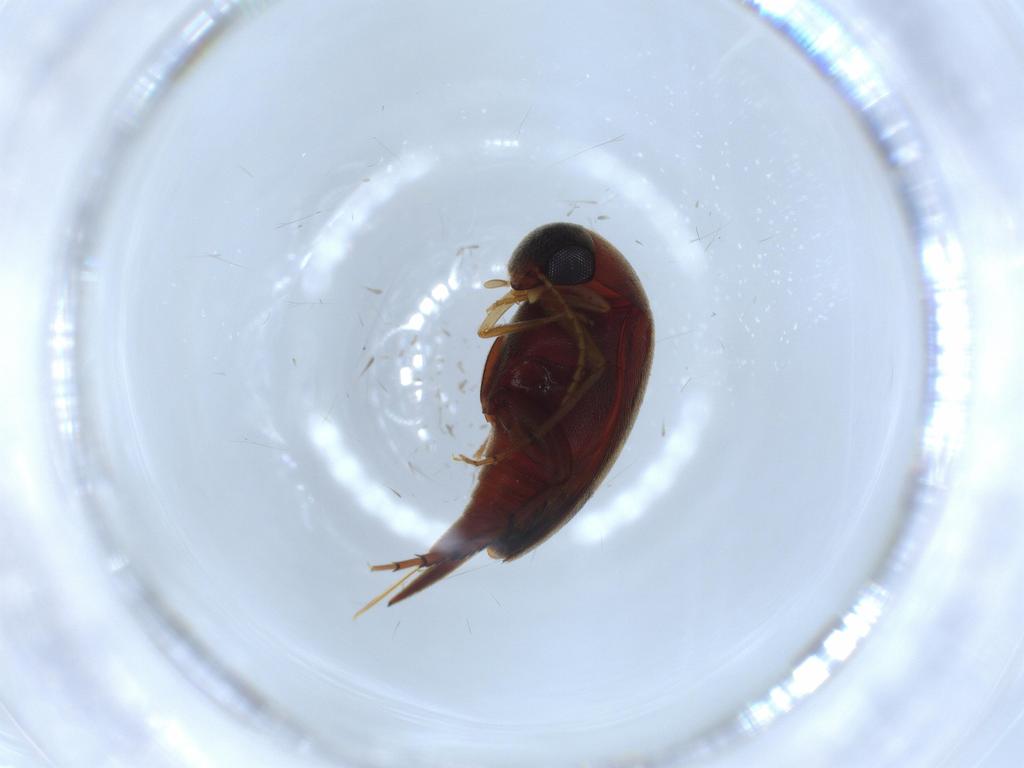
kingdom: Animalia
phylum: Arthropoda
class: Insecta
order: Coleoptera
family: Mordellidae
